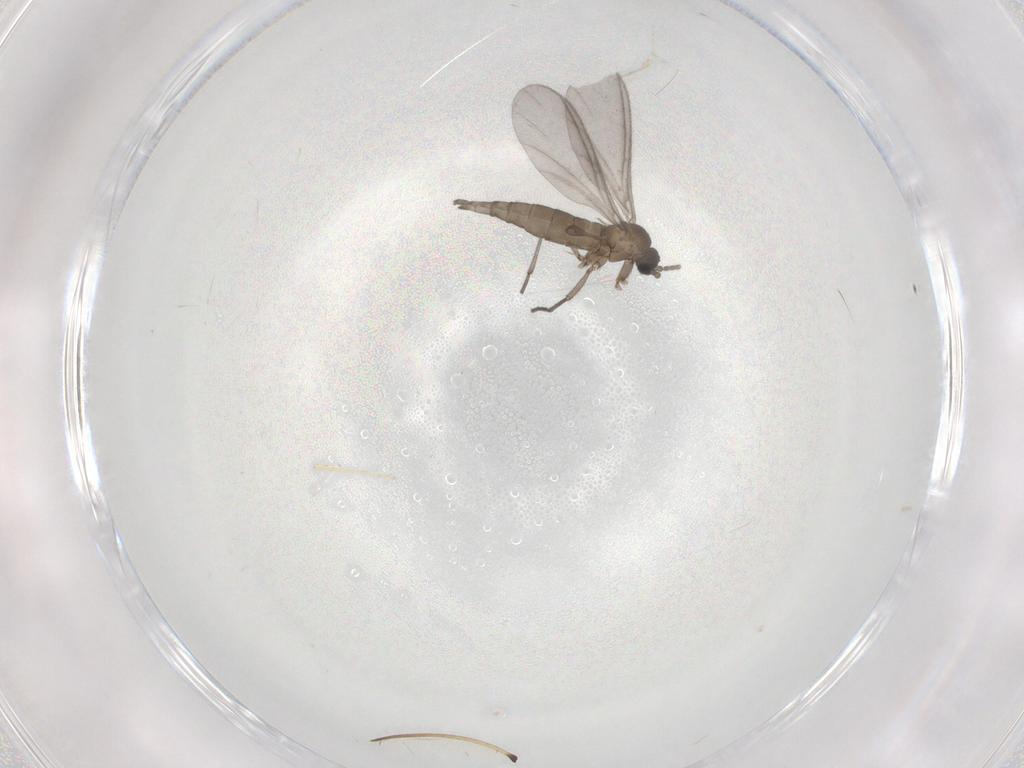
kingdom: Animalia
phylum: Arthropoda
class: Insecta
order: Diptera
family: Sciaridae
